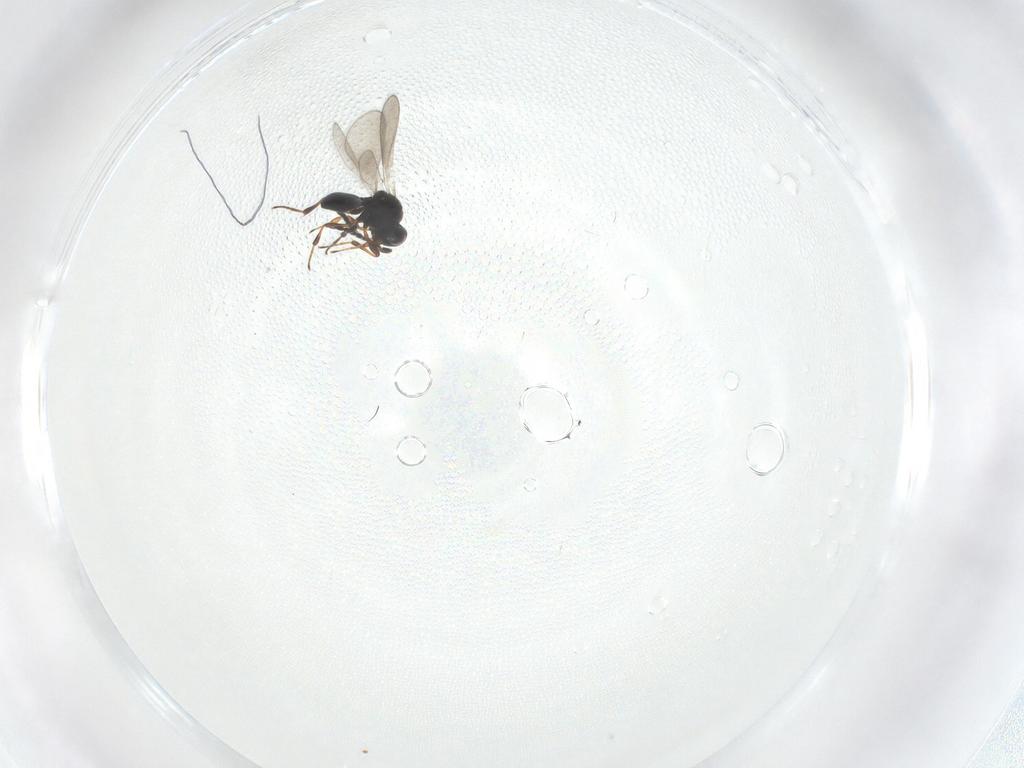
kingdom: Animalia
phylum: Arthropoda
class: Insecta
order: Hymenoptera
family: Platygastridae
